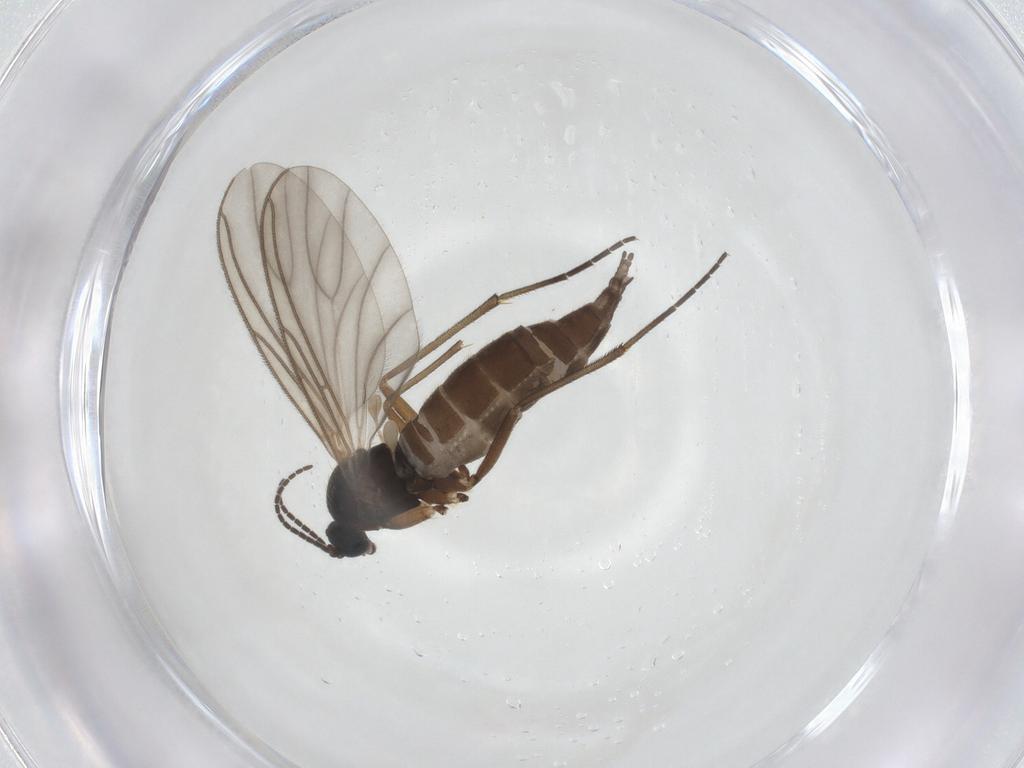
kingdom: Animalia
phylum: Arthropoda
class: Insecta
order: Diptera
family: Sciaridae
